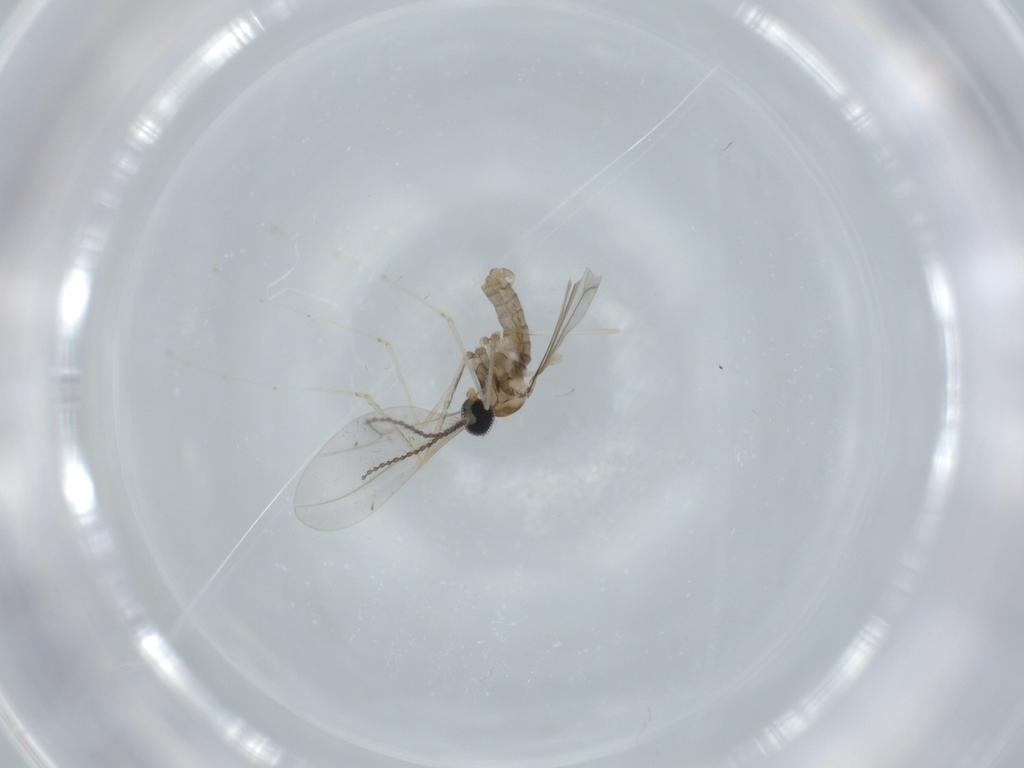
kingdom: Animalia
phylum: Arthropoda
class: Insecta
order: Diptera
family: Cecidomyiidae
